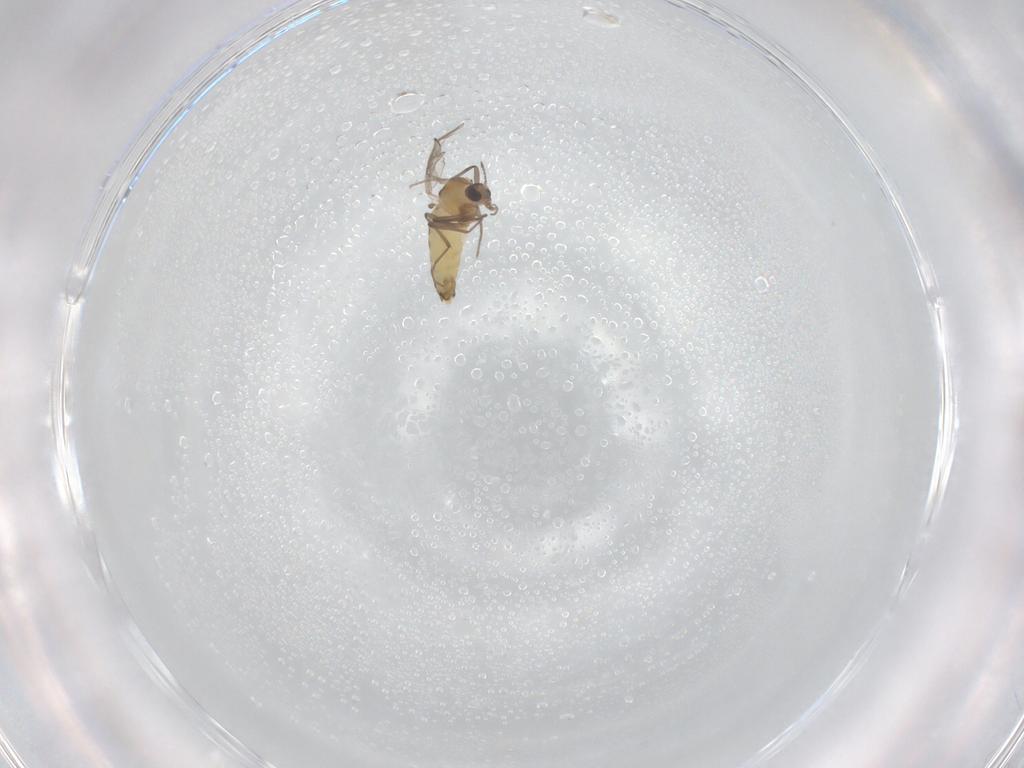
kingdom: Animalia
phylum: Arthropoda
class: Insecta
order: Diptera
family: Chironomidae
